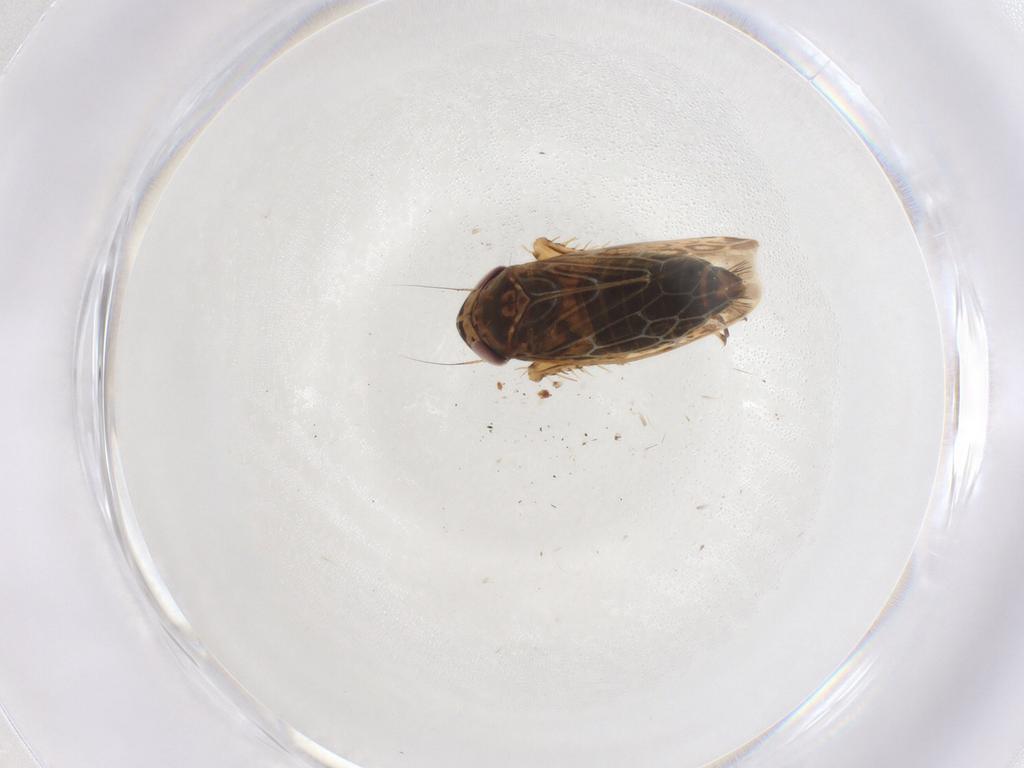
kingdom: Animalia
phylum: Arthropoda
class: Insecta
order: Hemiptera
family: Cicadellidae
